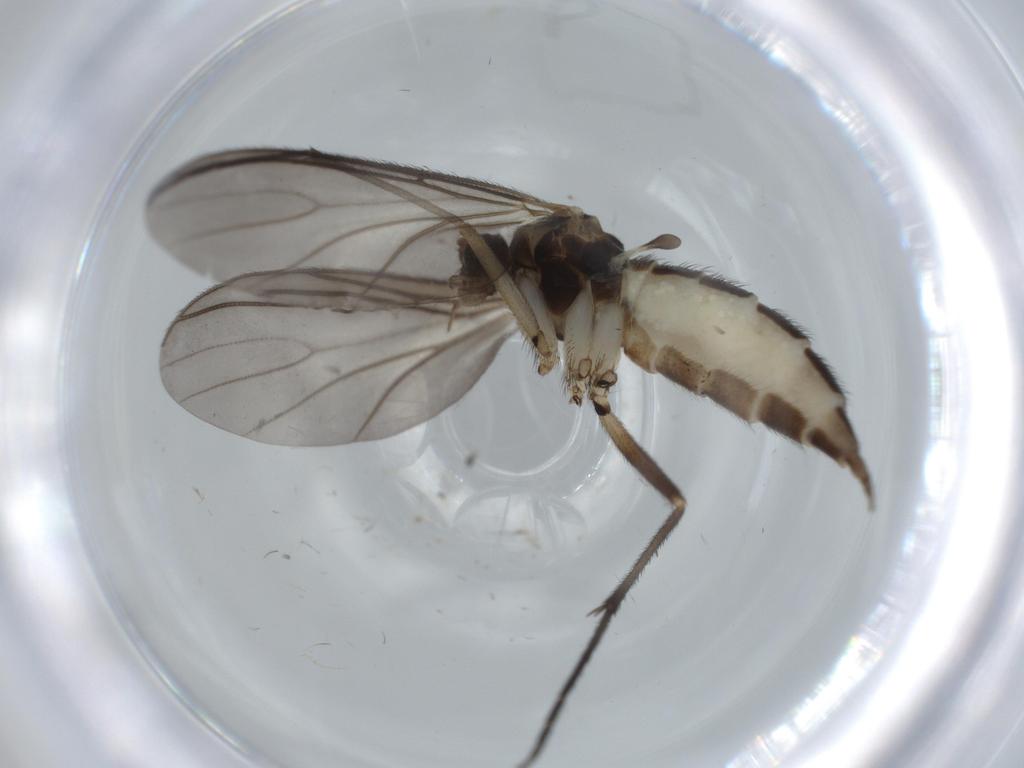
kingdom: Animalia
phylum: Arthropoda
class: Insecta
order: Diptera
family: Sciaridae
